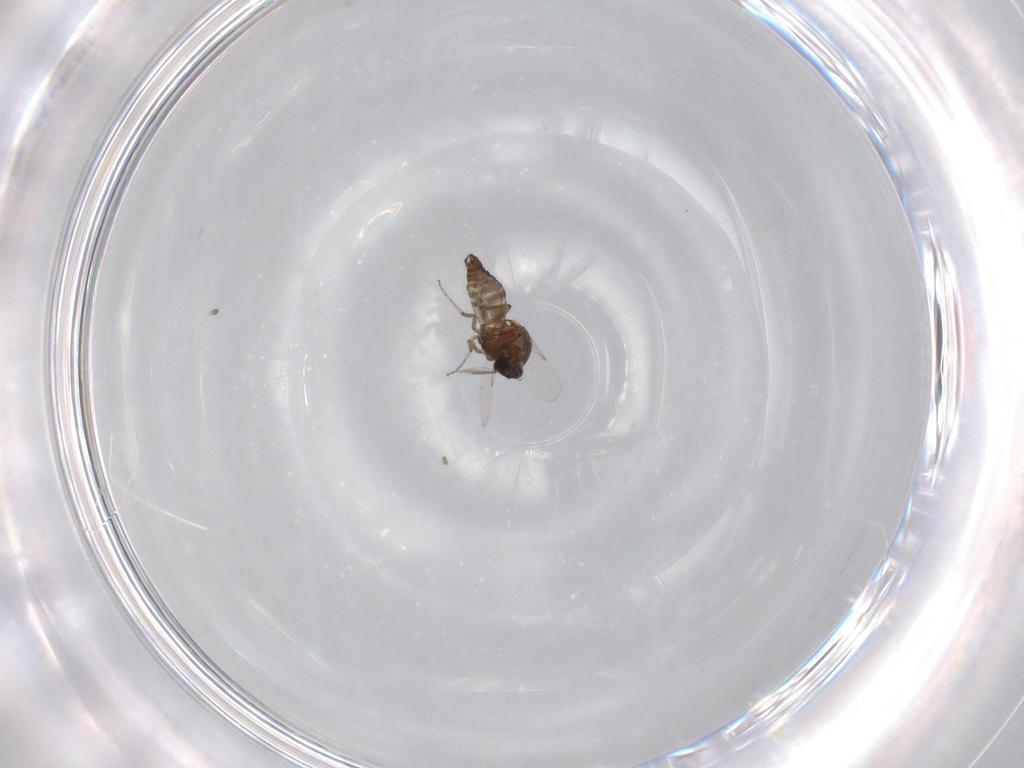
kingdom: Animalia
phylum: Arthropoda
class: Insecta
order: Diptera
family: Ceratopogonidae
